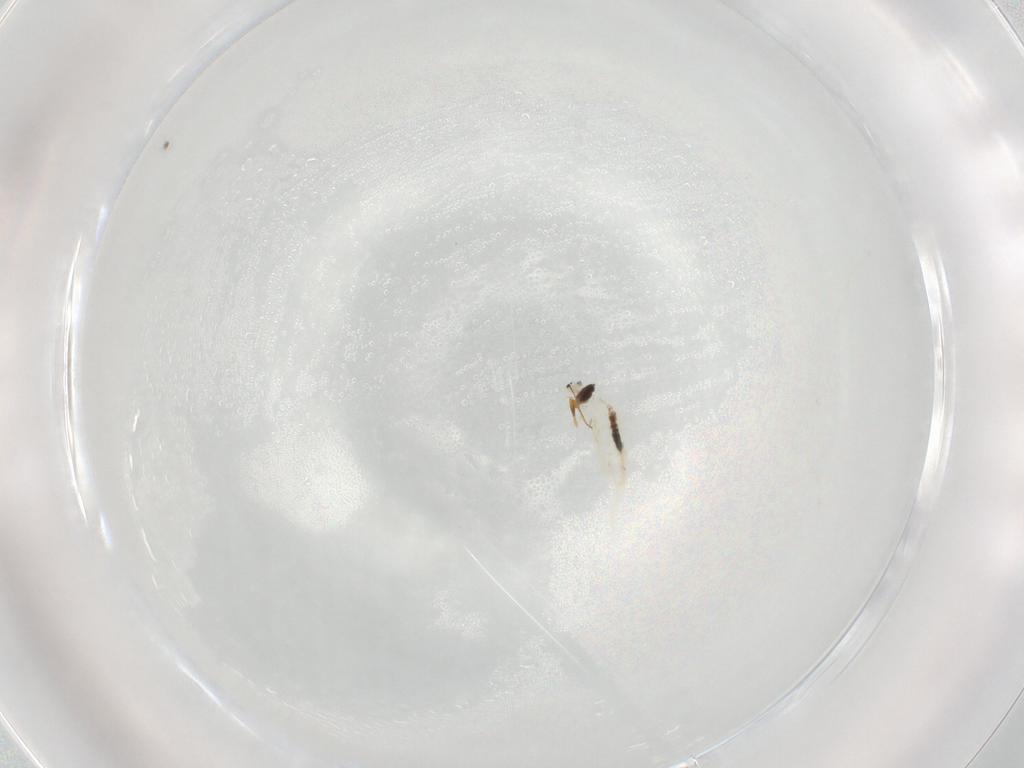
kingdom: Animalia
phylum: Arthropoda
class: Collembola
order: Entomobryomorpha
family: Entomobryidae
